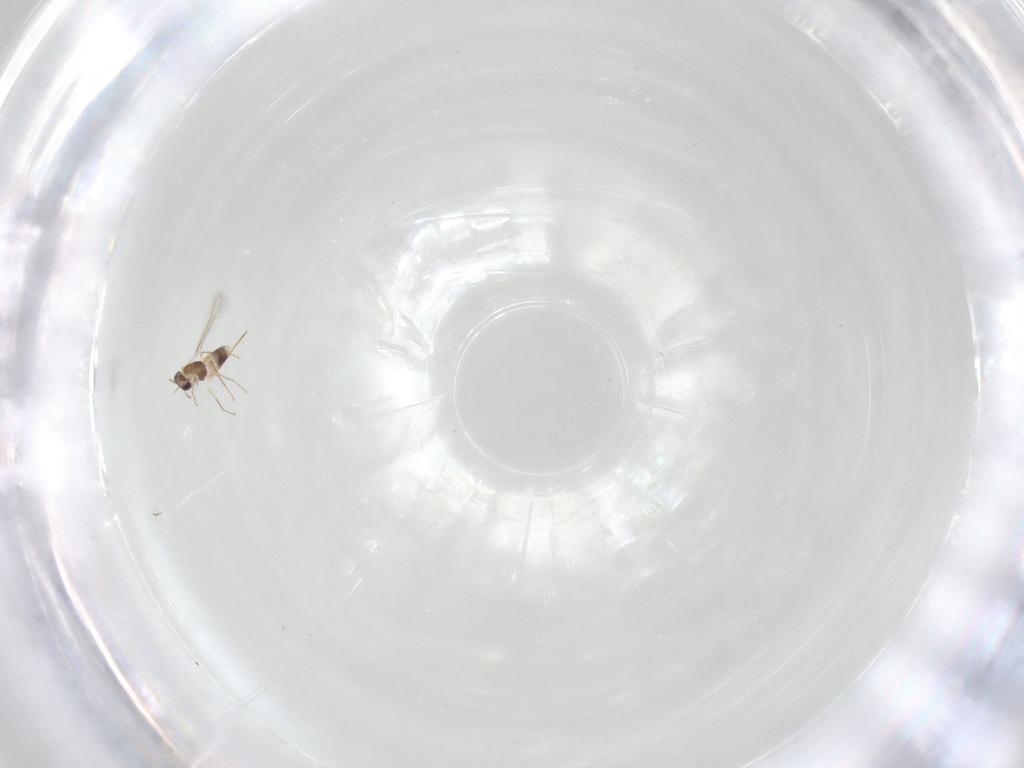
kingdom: Animalia
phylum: Arthropoda
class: Insecta
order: Hymenoptera
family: Mymaridae
